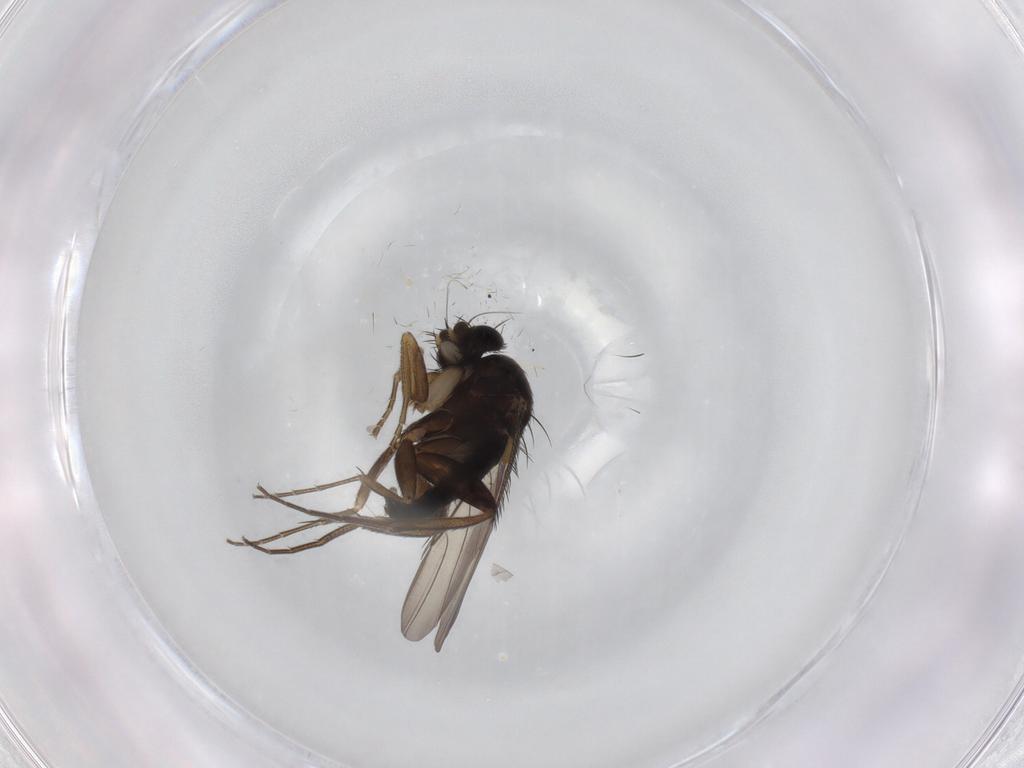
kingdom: Animalia
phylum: Arthropoda
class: Insecta
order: Diptera
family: Phoridae
